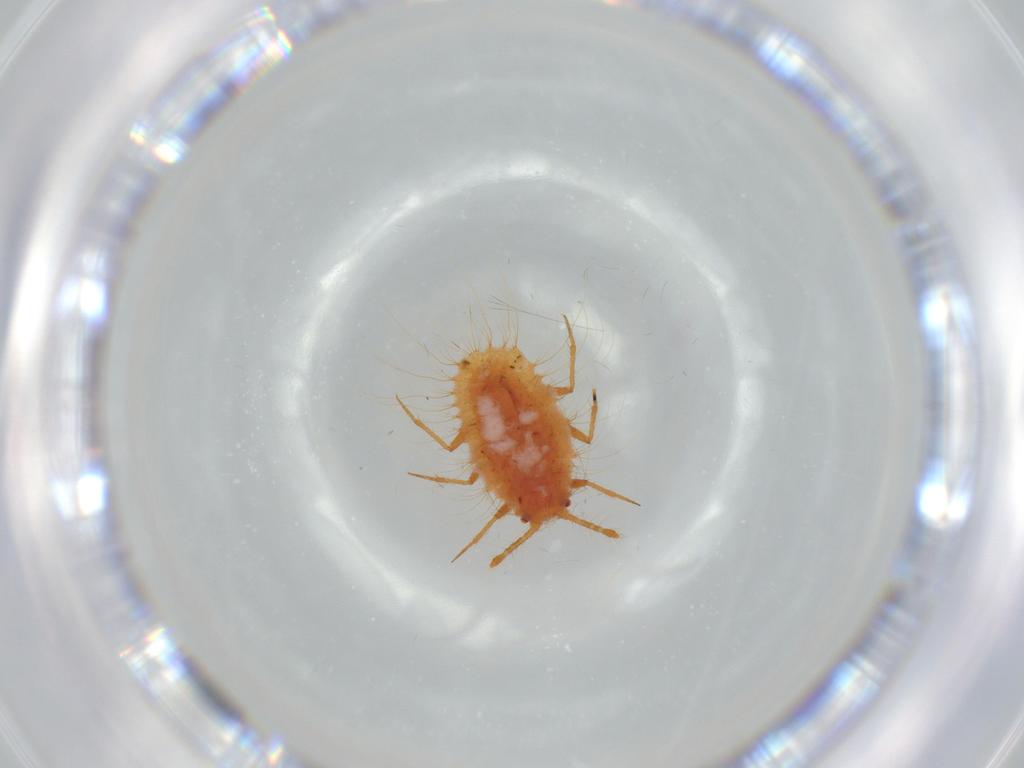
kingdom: Animalia
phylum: Arthropoda
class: Insecta
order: Hemiptera
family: Coccoidea_incertae_sedis
